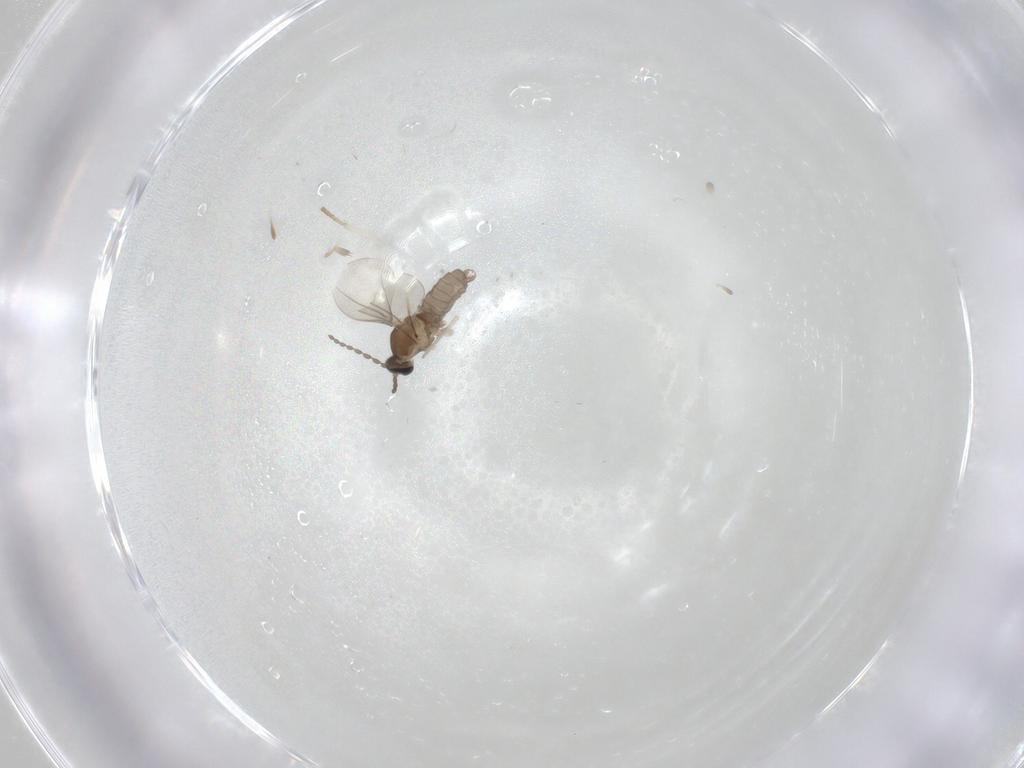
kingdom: Animalia
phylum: Arthropoda
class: Insecta
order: Diptera
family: Cecidomyiidae
